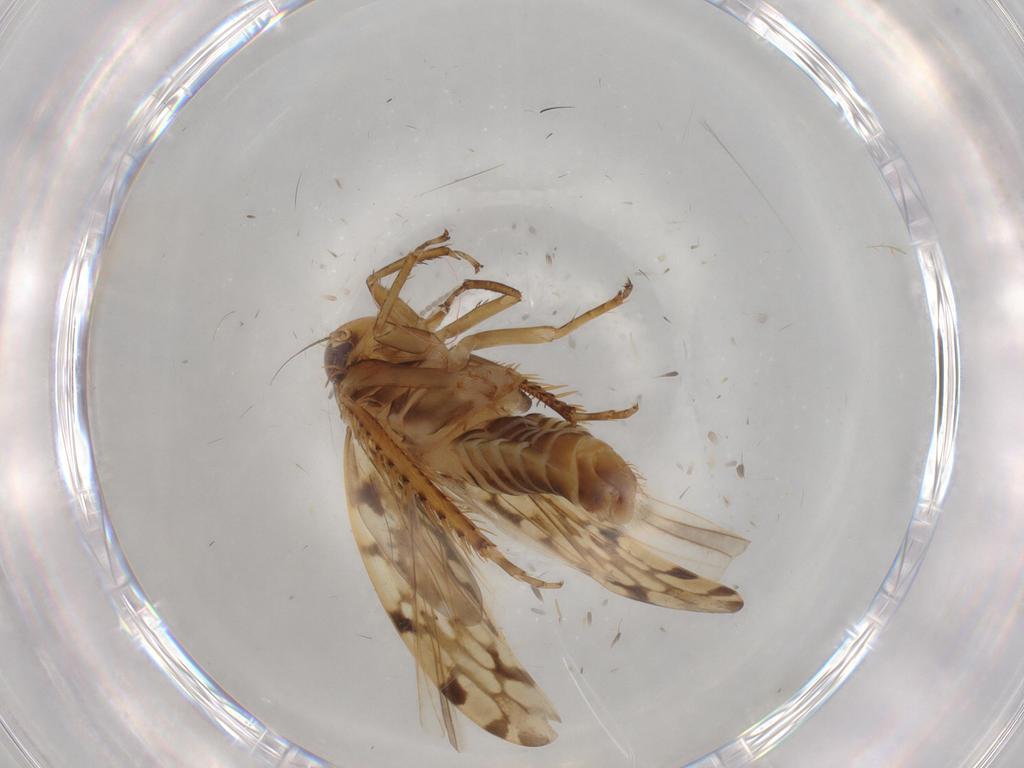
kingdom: Animalia
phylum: Arthropoda
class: Insecta
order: Hemiptera
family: Cicadellidae
